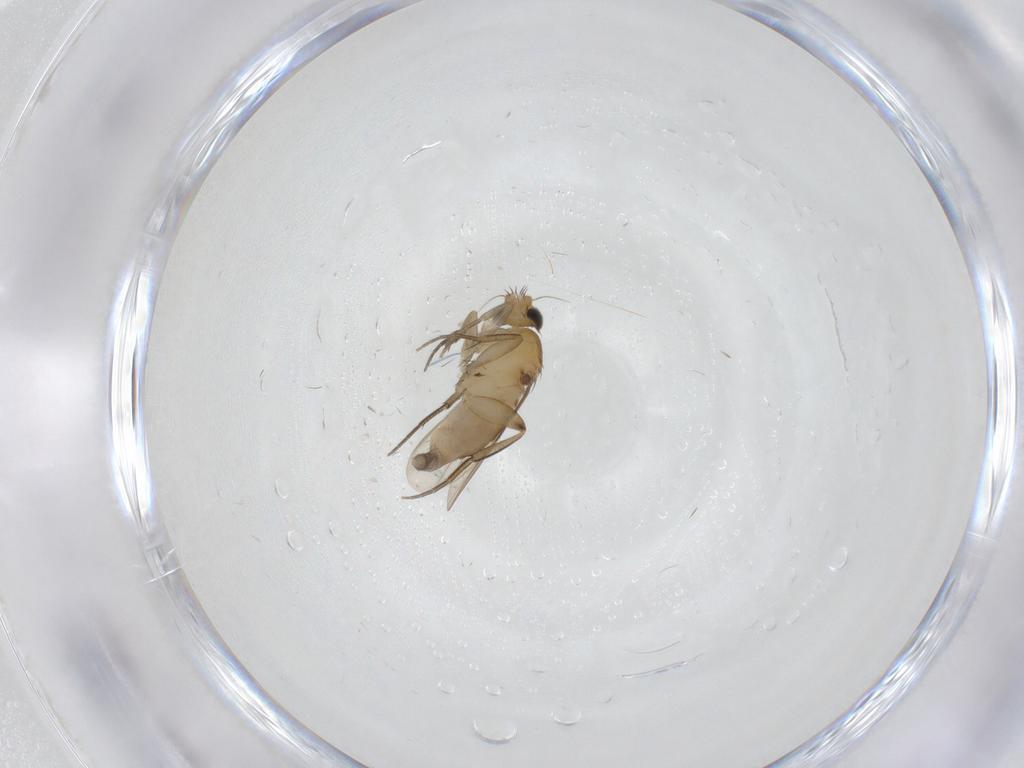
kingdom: Animalia
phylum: Arthropoda
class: Insecta
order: Diptera
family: Phoridae
